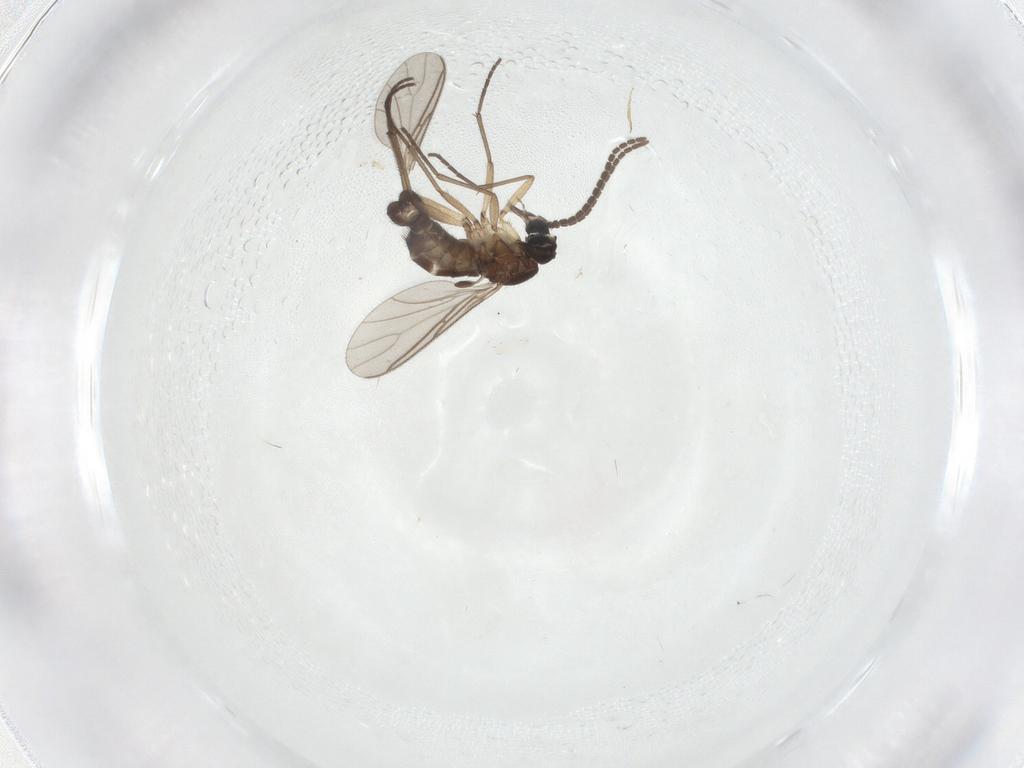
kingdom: Animalia
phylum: Arthropoda
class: Insecta
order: Diptera
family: Sciaridae
